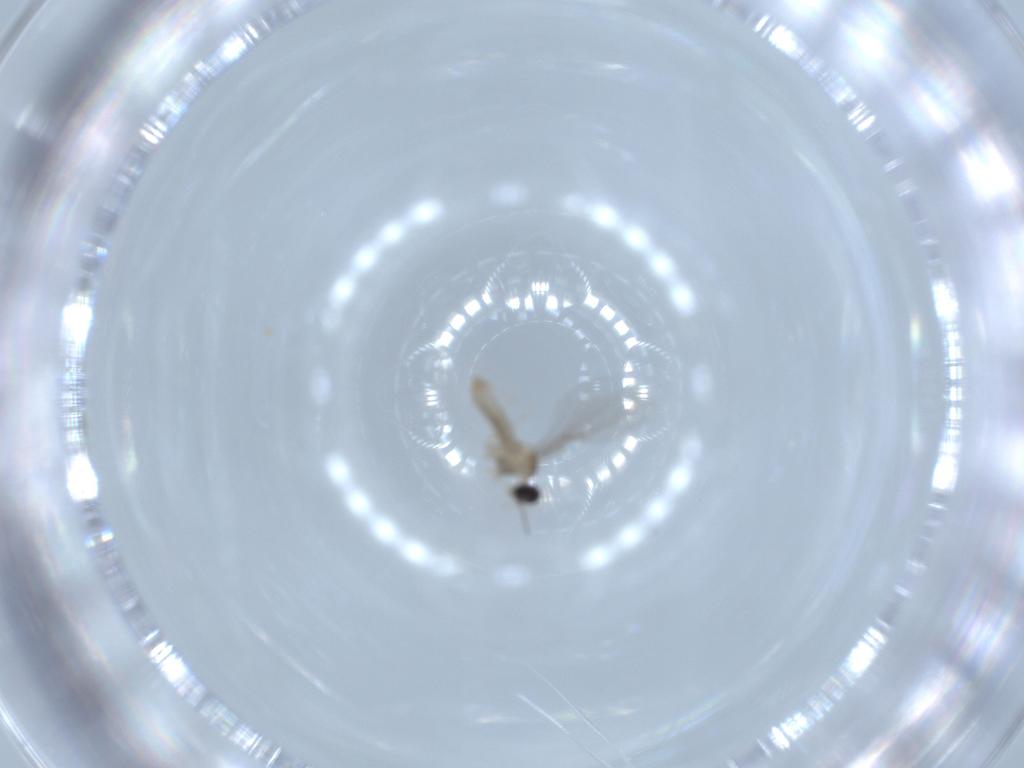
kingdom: Animalia
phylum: Arthropoda
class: Insecta
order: Diptera
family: Cecidomyiidae
